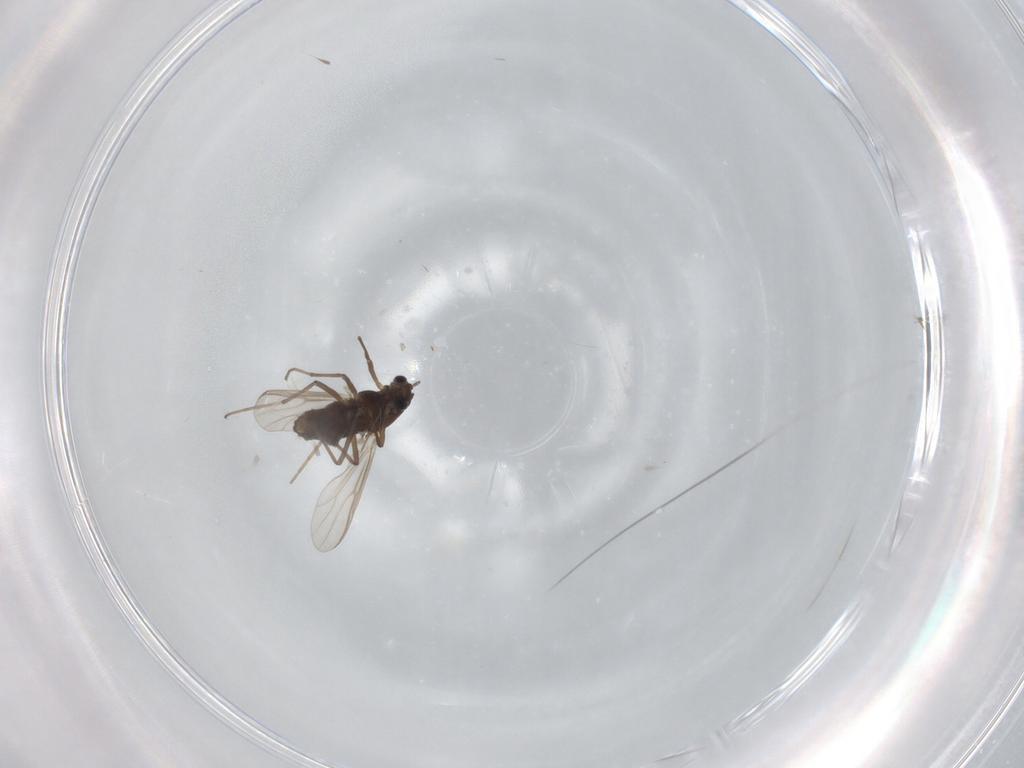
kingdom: Animalia
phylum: Arthropoda
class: Insecta
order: Diptera
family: Chironomidae
